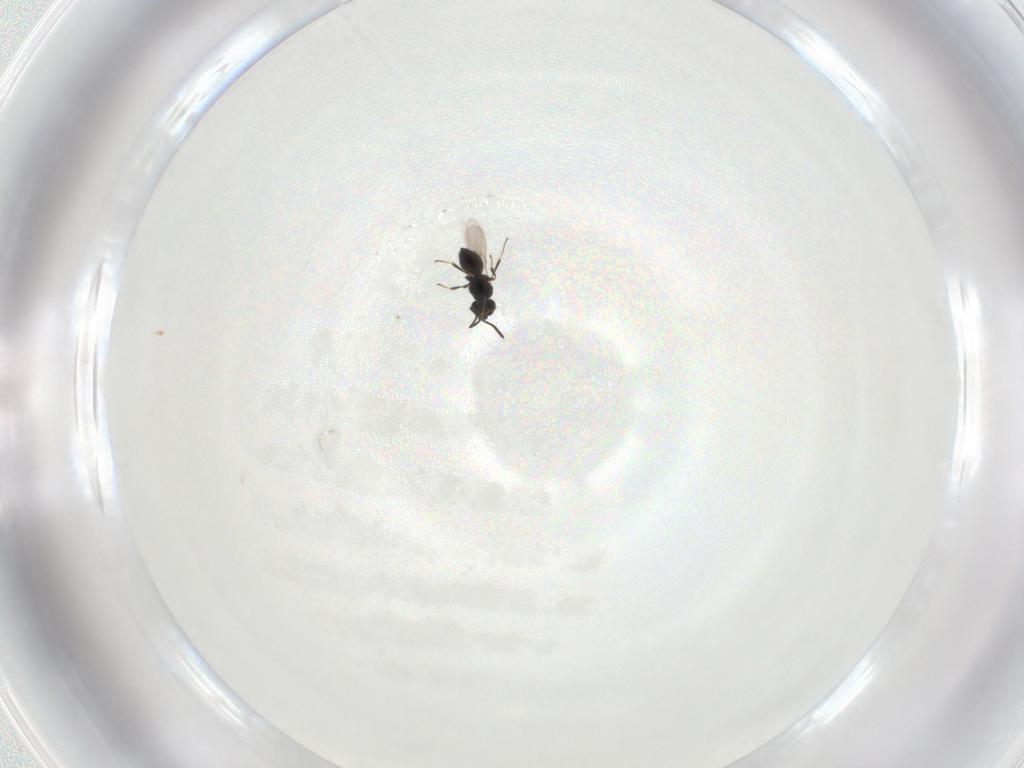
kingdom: Animalia
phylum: Arthropoda
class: Insecta
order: Hymenoptera
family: Scelionidae
